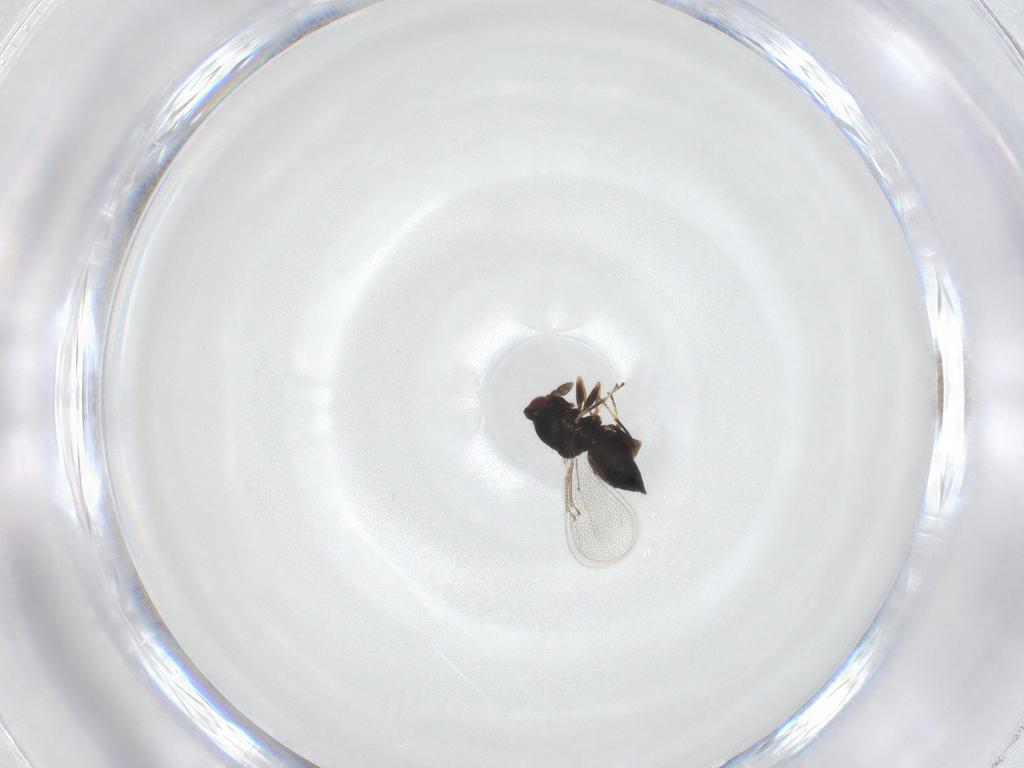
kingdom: Animalia
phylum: Arthropoda
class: Insecta
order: Hymenoptera
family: Eulophidae
